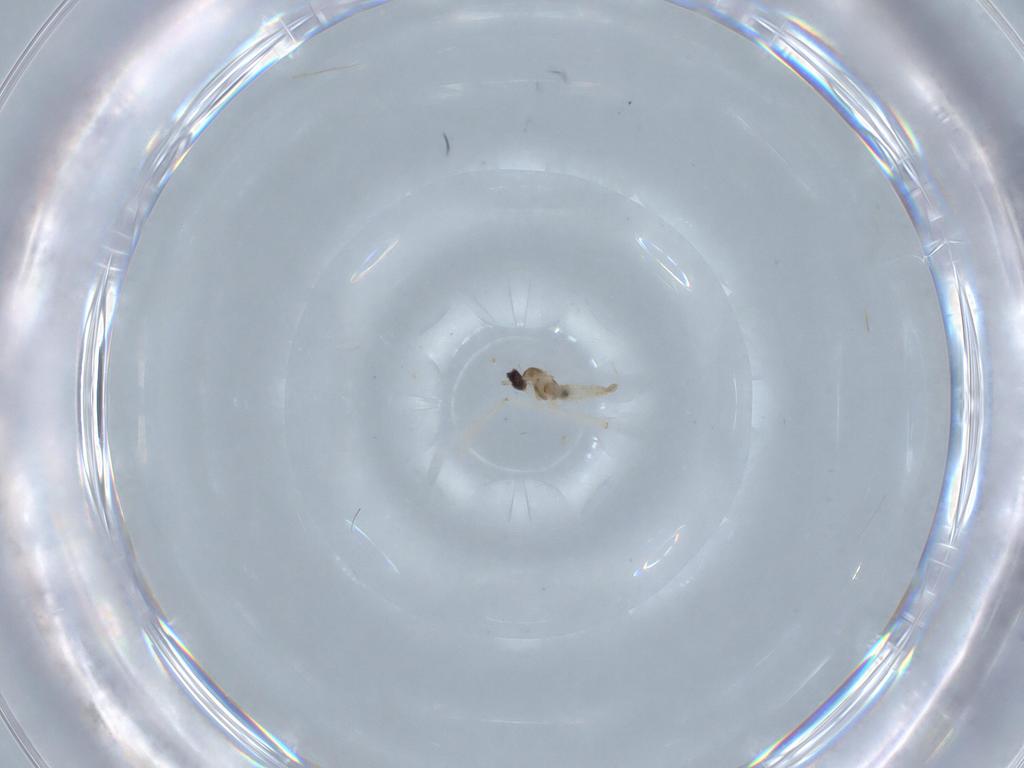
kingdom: Animalia
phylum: Arthropoda
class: Insecta
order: Diptera
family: Cecidomyiidae
